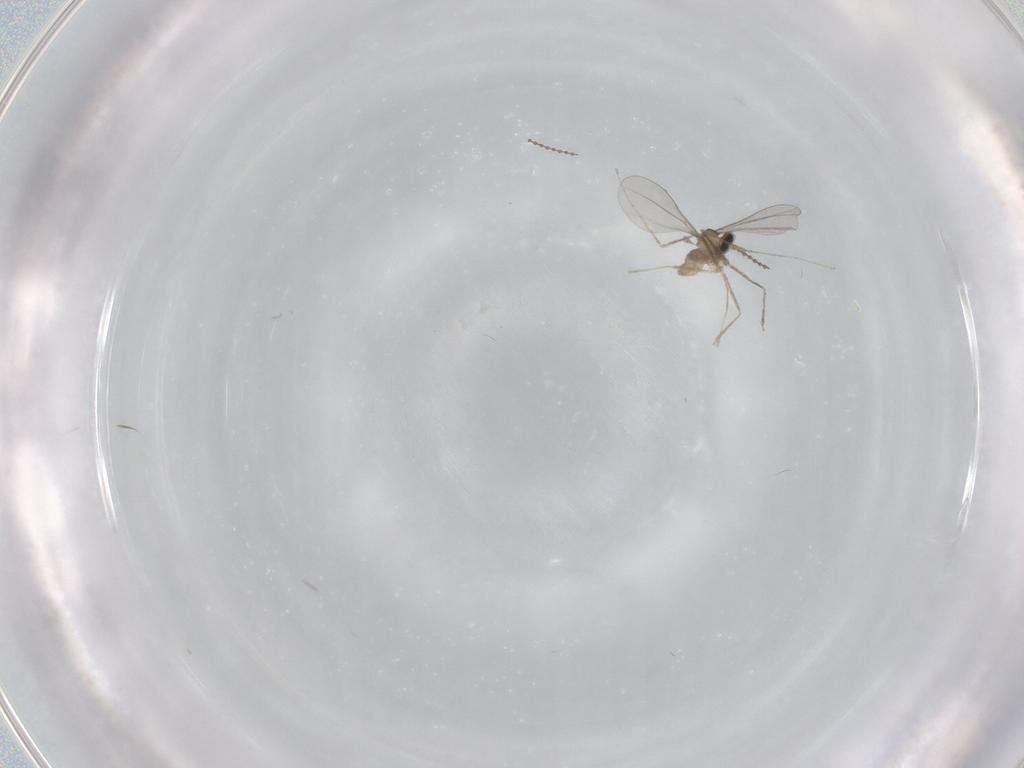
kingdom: Animalia
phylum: Arthropoda
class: Insecta
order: Diptera
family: Cecidomyiidae
